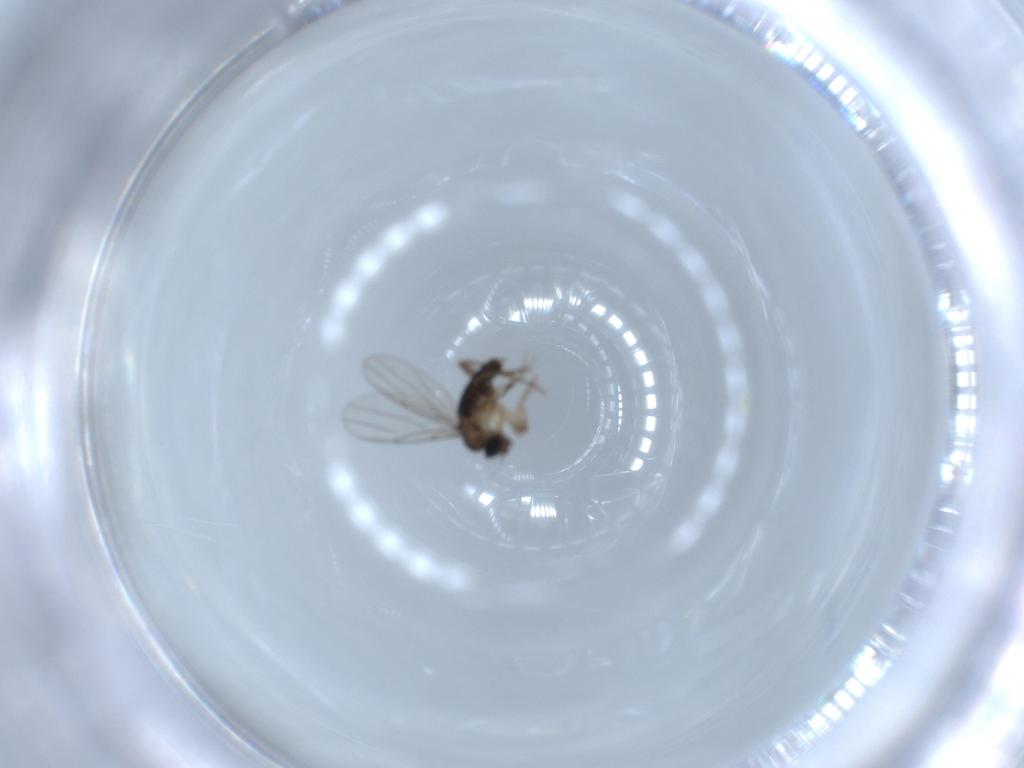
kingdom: Animalia
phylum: Arthropoda
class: Insecta
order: Diptera
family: Phoridae
